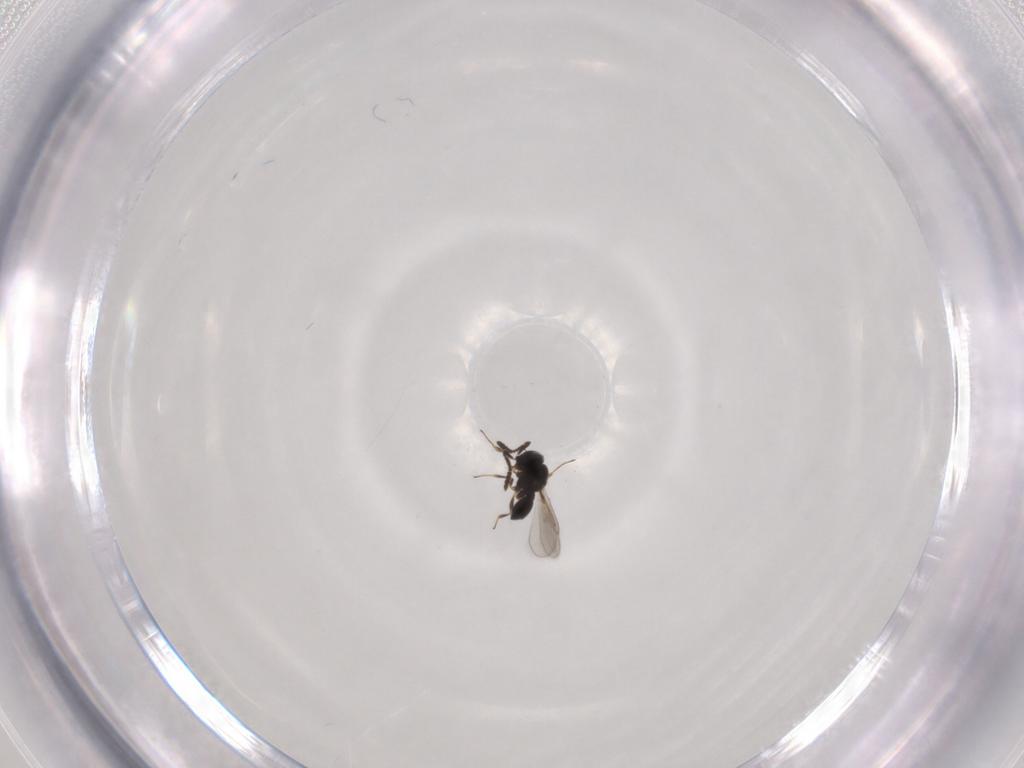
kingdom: Animalia
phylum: Arthropoda
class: Insecta
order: Hymenoptera
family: Scelionidae
